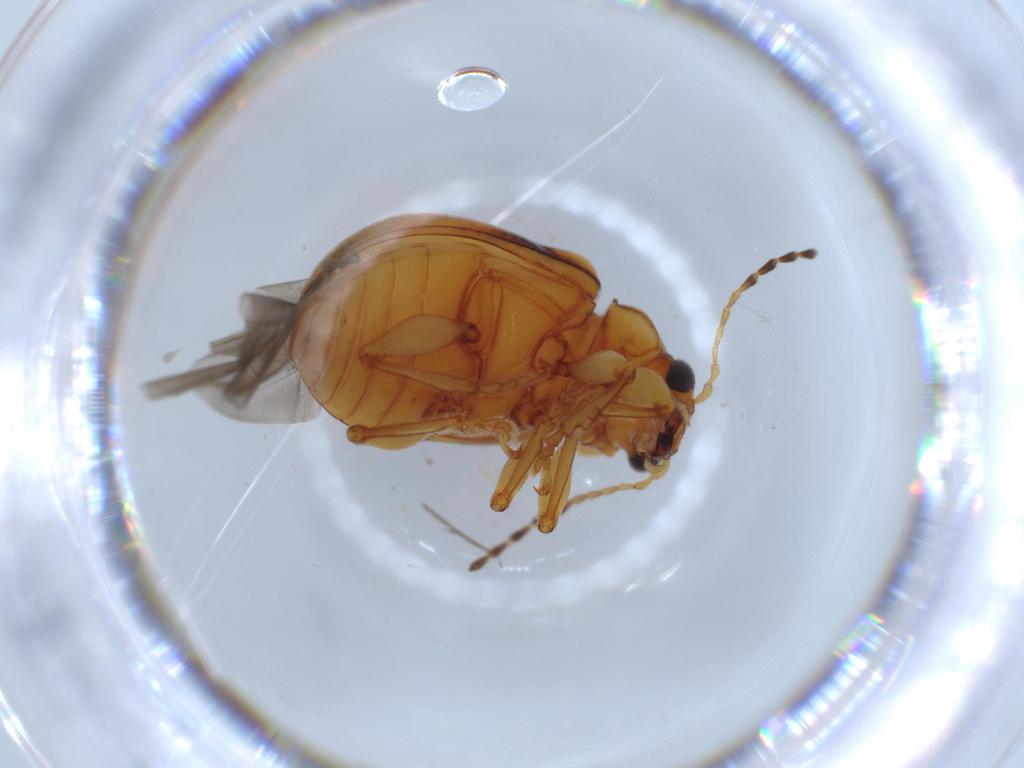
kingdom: Animalia
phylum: Arthropoda
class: Insecta
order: Coleoptera
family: Chrysomelidae
